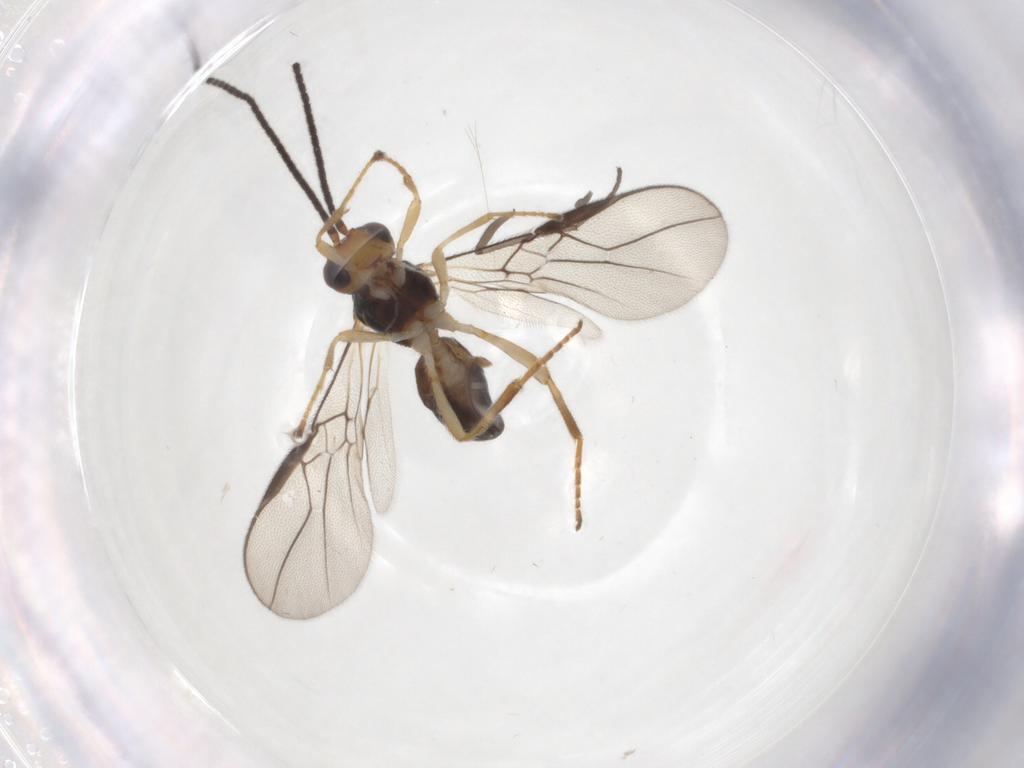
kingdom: Animalia
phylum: Arthropoda
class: Insecta
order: Hymenoptera
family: Braconidae
